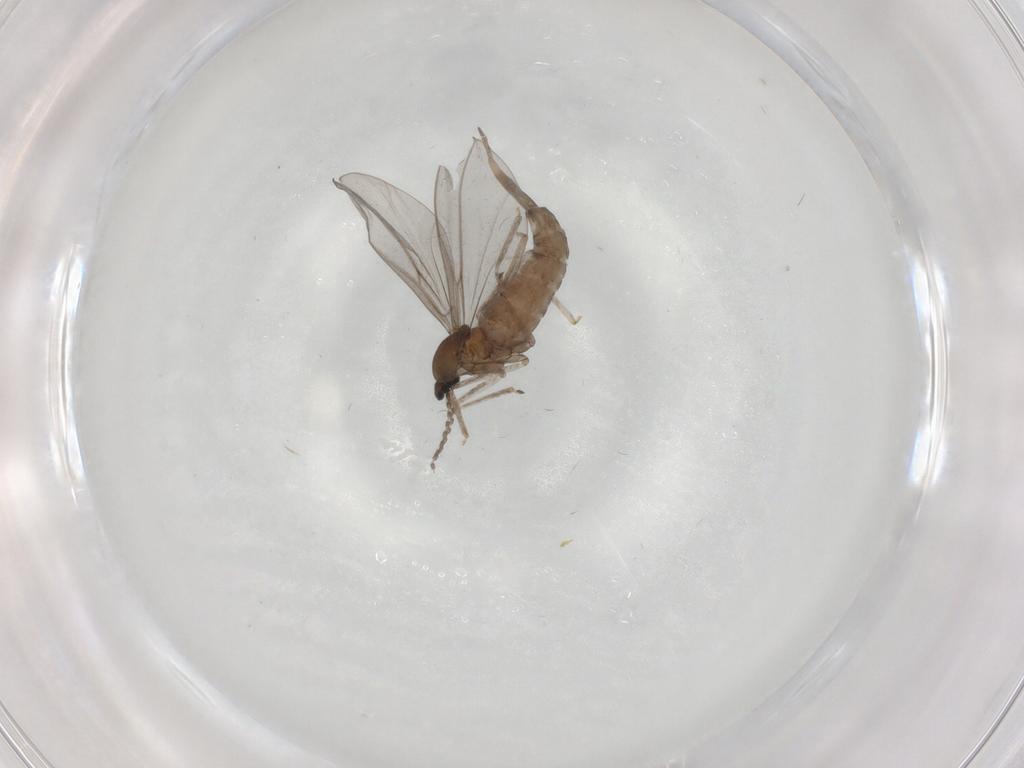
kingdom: Animalia
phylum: Arthropoda
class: Insecta
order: Diptera
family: Cecidomyiidae
